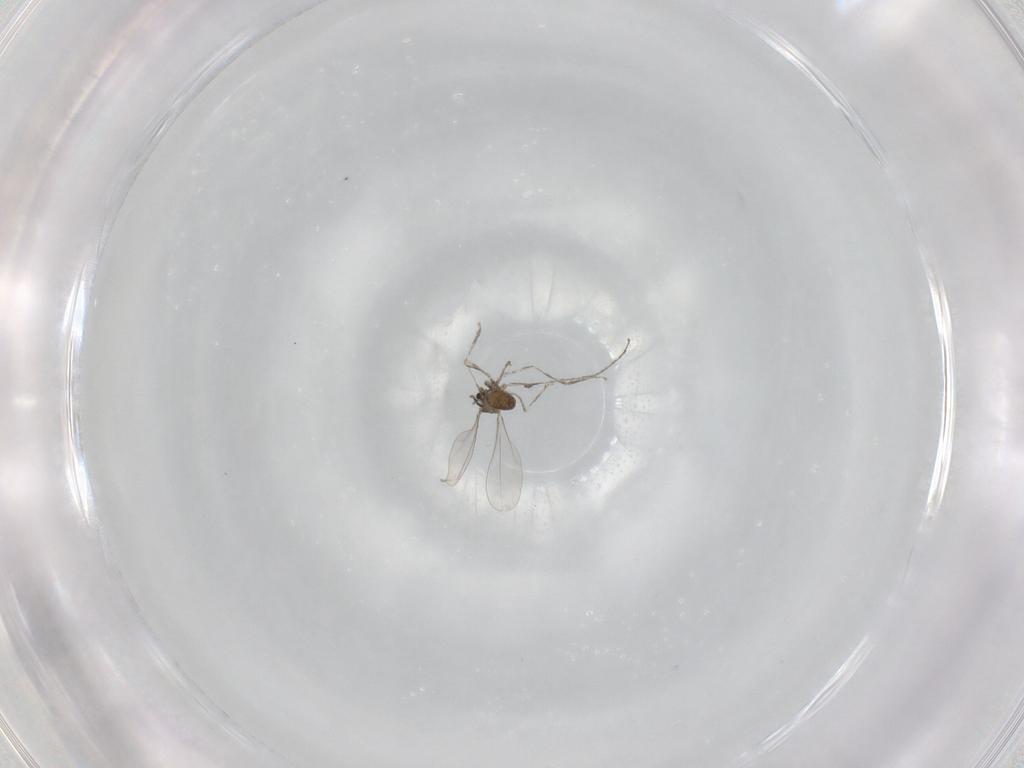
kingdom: Animalia
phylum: Arthropoda
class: Insecta
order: Diptera
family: Cecidomyiidae
